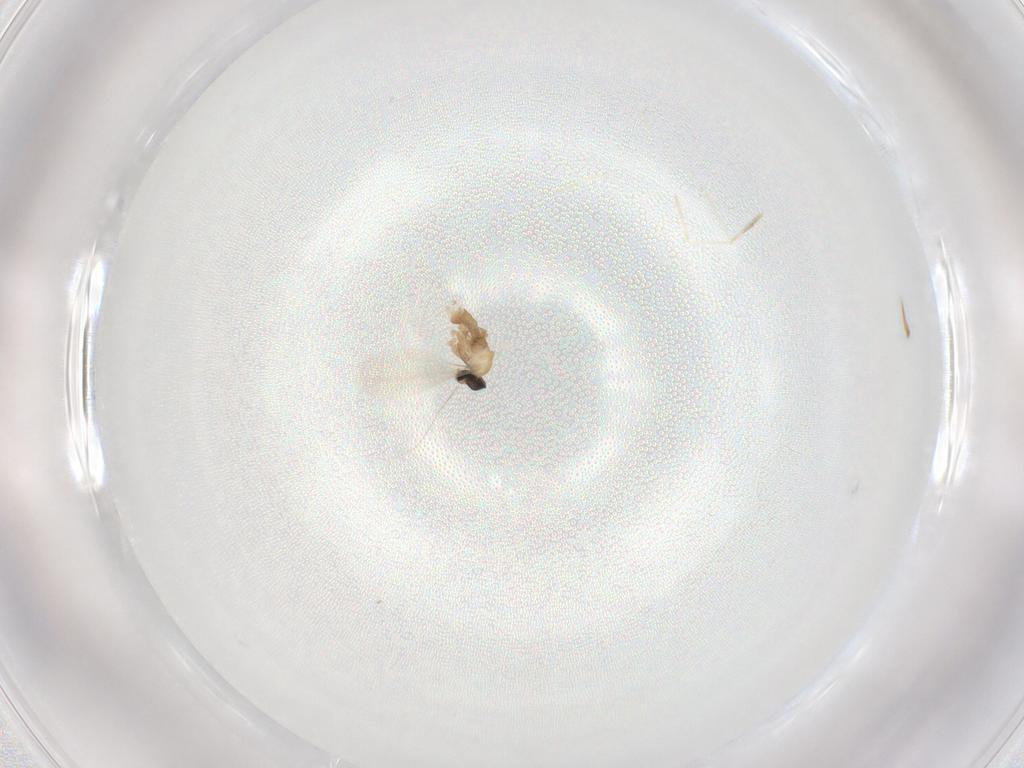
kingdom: Animalia
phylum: Arthropoda
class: Insecta
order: Diptera
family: Cecidomyiidae
